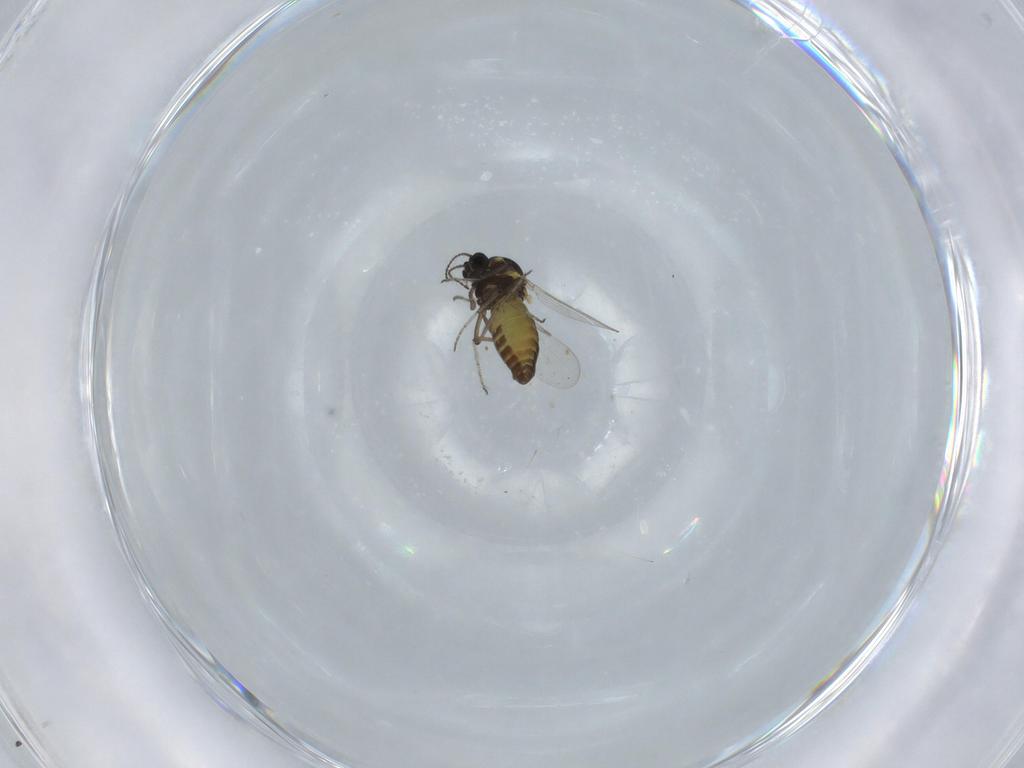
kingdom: Animalia
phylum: Arthropoda
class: Insecta
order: Diptera
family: Chironomidae
